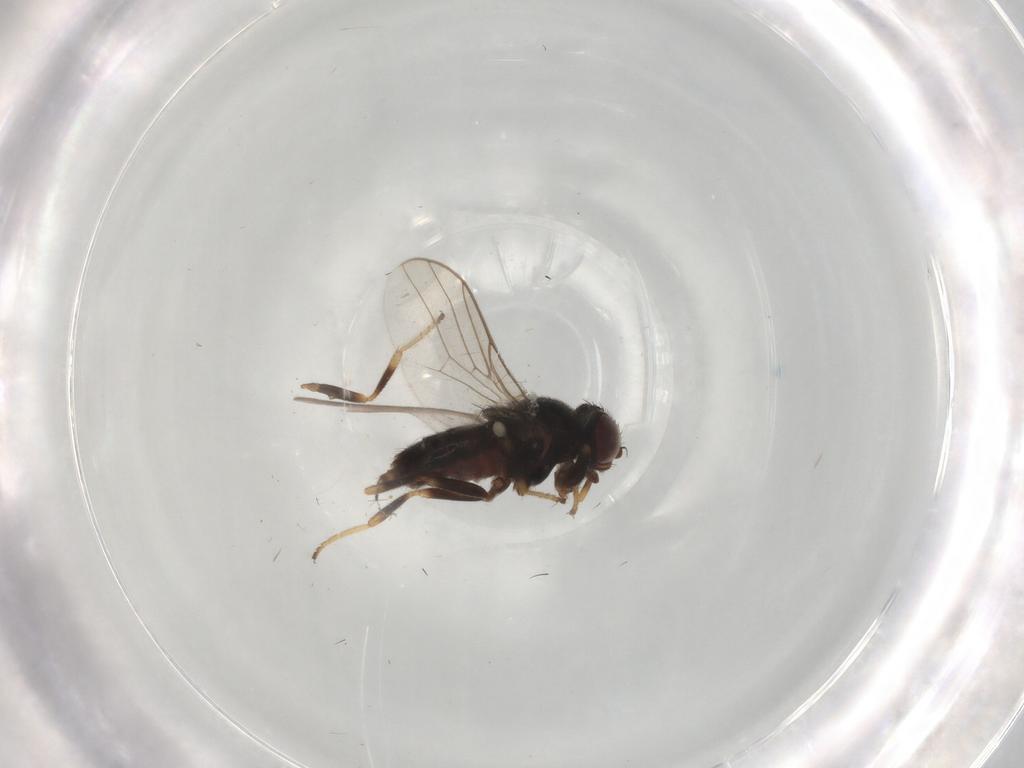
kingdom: Animalia
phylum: Arthropoda
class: Insecta
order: Diptera
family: Chloropidae
